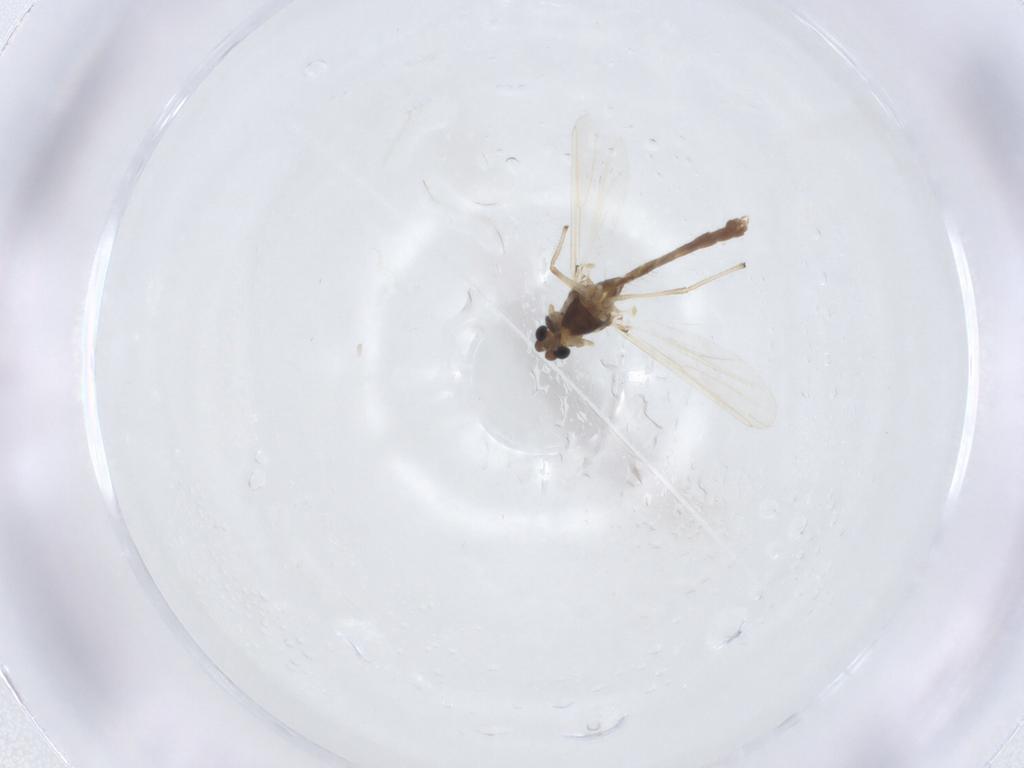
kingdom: Animalia
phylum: Arthropoda
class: Insecta
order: Diptera
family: Chironomidae
